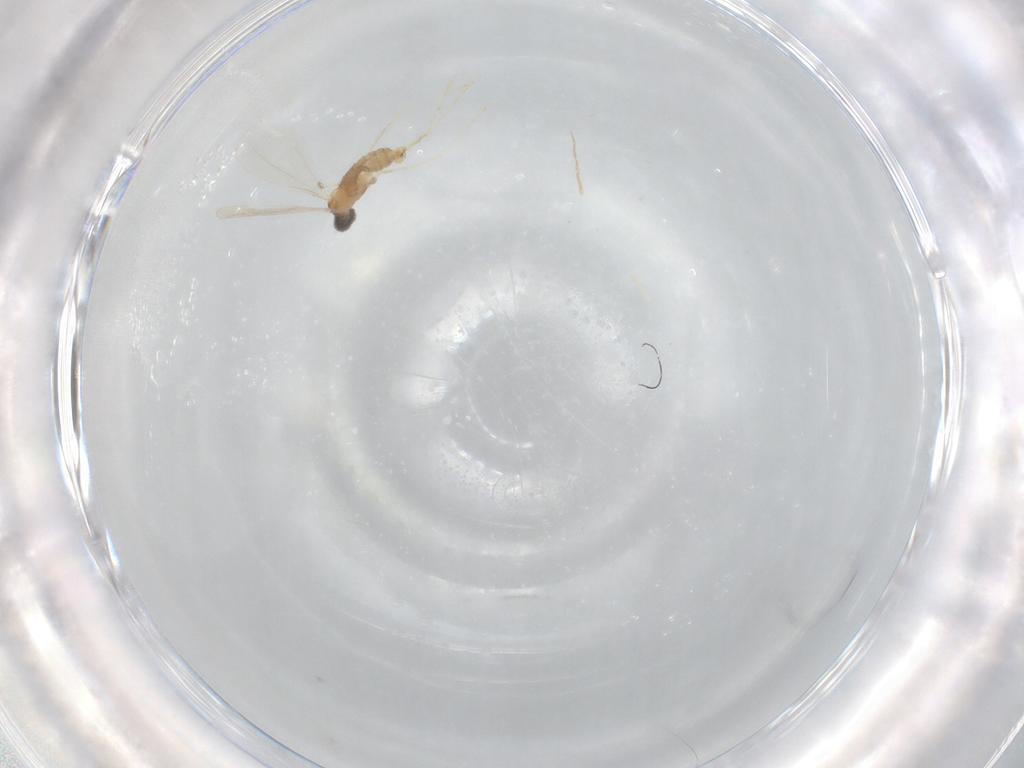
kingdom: Animalia
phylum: Arthropoda
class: Insecta
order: Diptera
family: Cecidomyiidae
